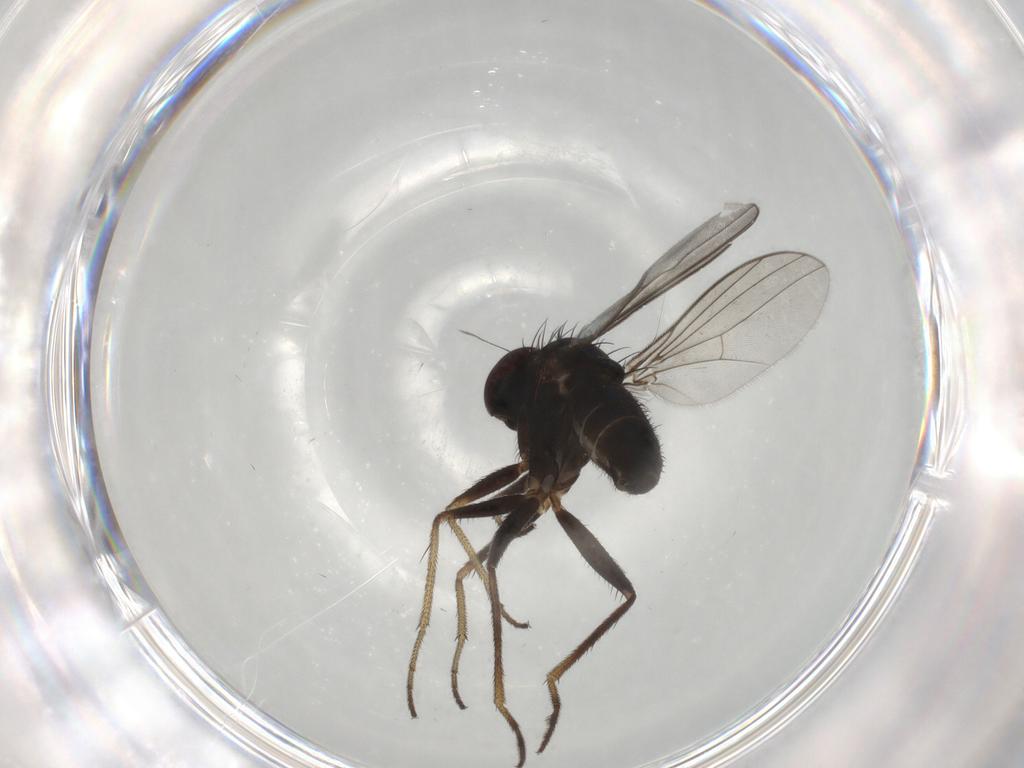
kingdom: Animalia
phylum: Arthropoda
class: Insecta
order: Diptera
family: Dolichopodidae
